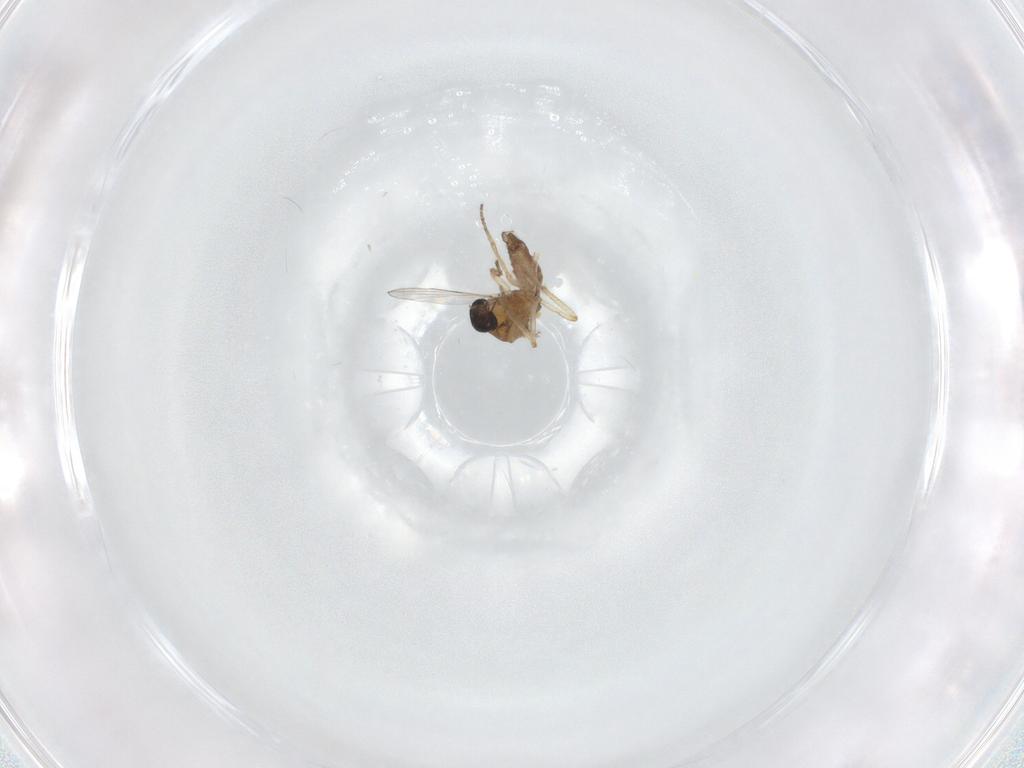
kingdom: Animalia
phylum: Arthropoda
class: Insecta
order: Diptera
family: Ceratopogonidae
